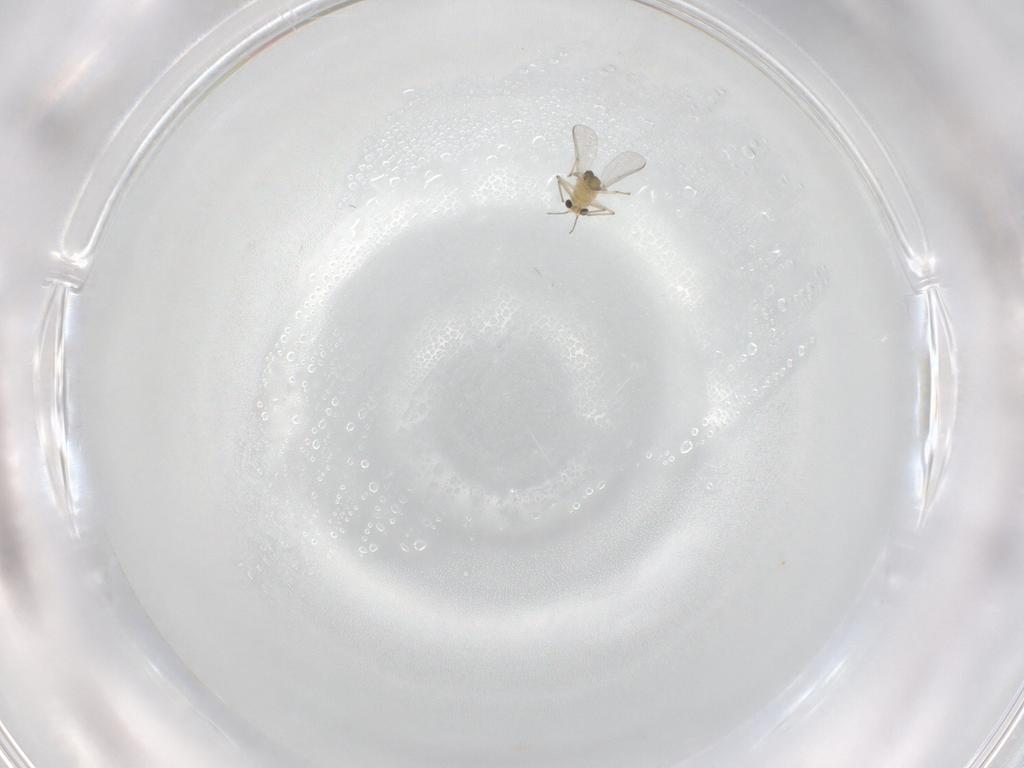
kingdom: Animalia
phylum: Arthropoda
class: Insecta
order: Diptera
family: Chironomidae
